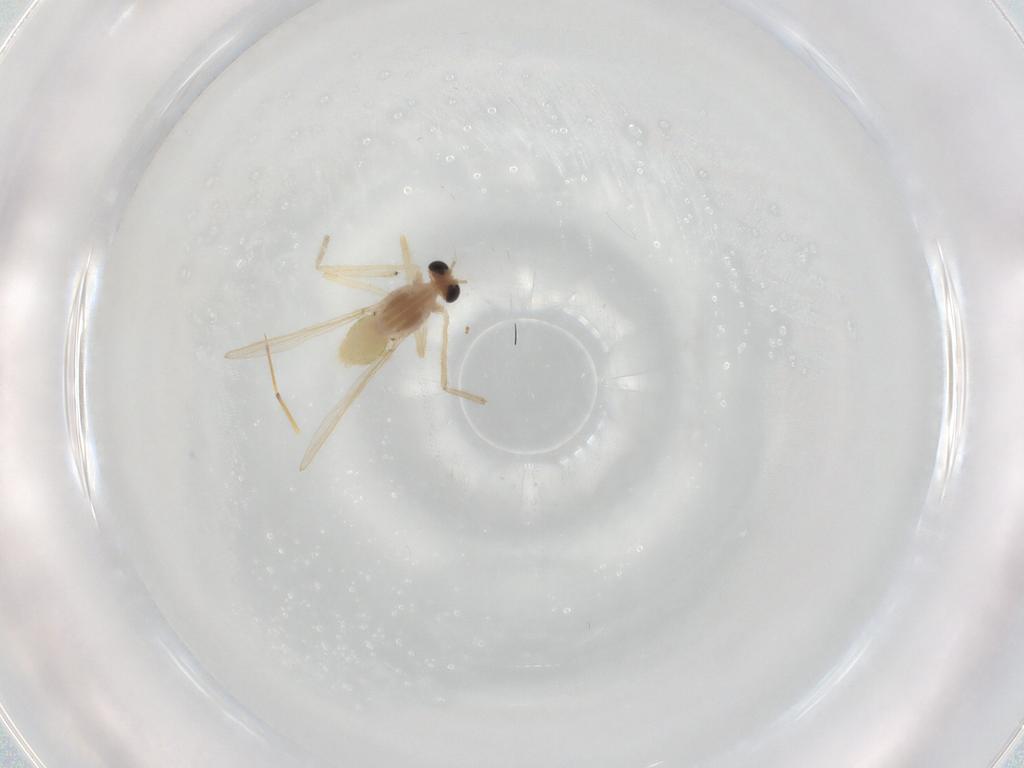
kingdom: Animalia
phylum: Arthropoda
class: Insecta
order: Diptera
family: Chironomidae
